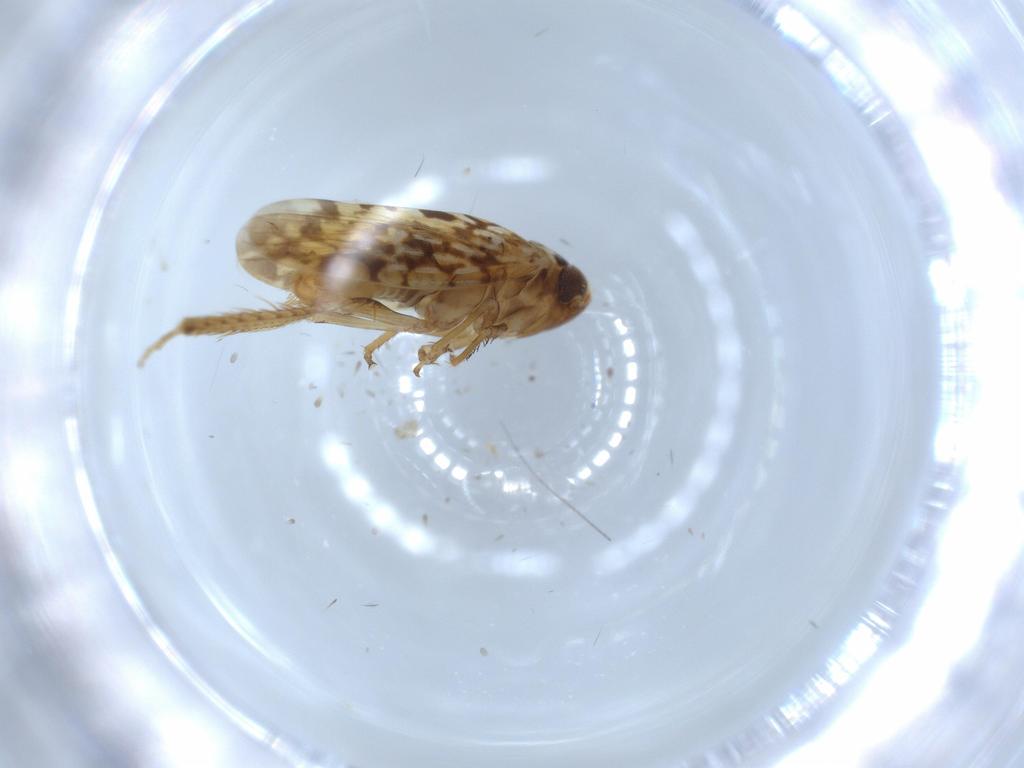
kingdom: Animalia
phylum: Arthropoda
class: Insecta
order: Hemiptera
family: Cicadellidae
